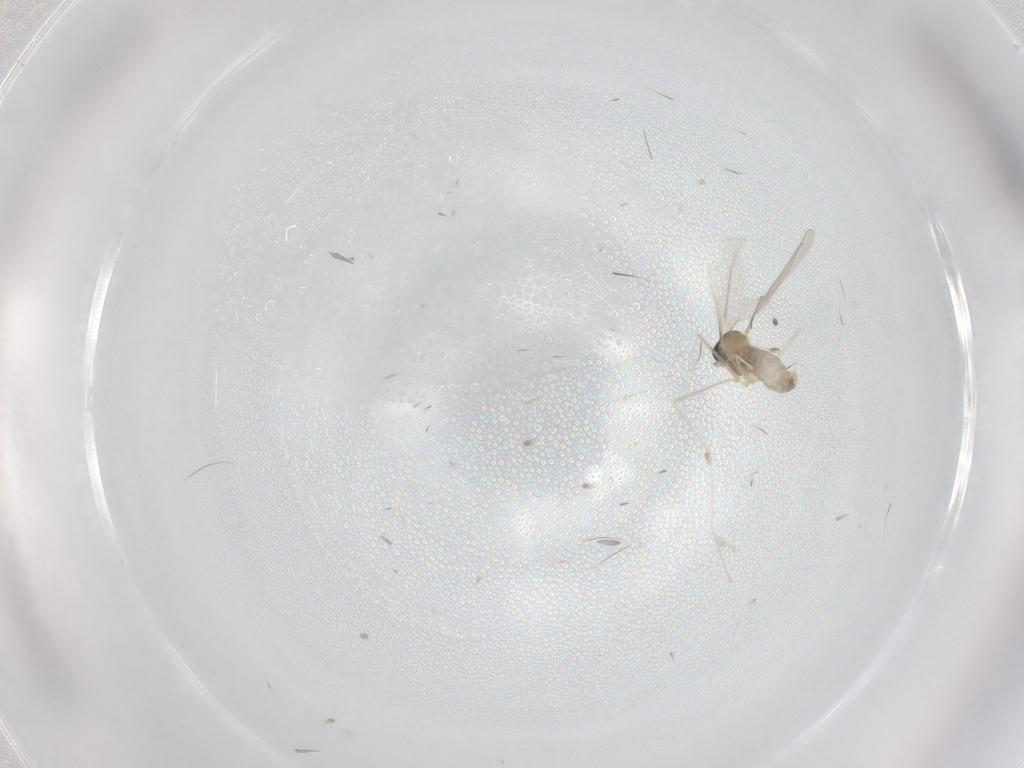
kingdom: Animalia
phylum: Arthropoda
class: Insecta
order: Diptera
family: Cecidomyiidae
